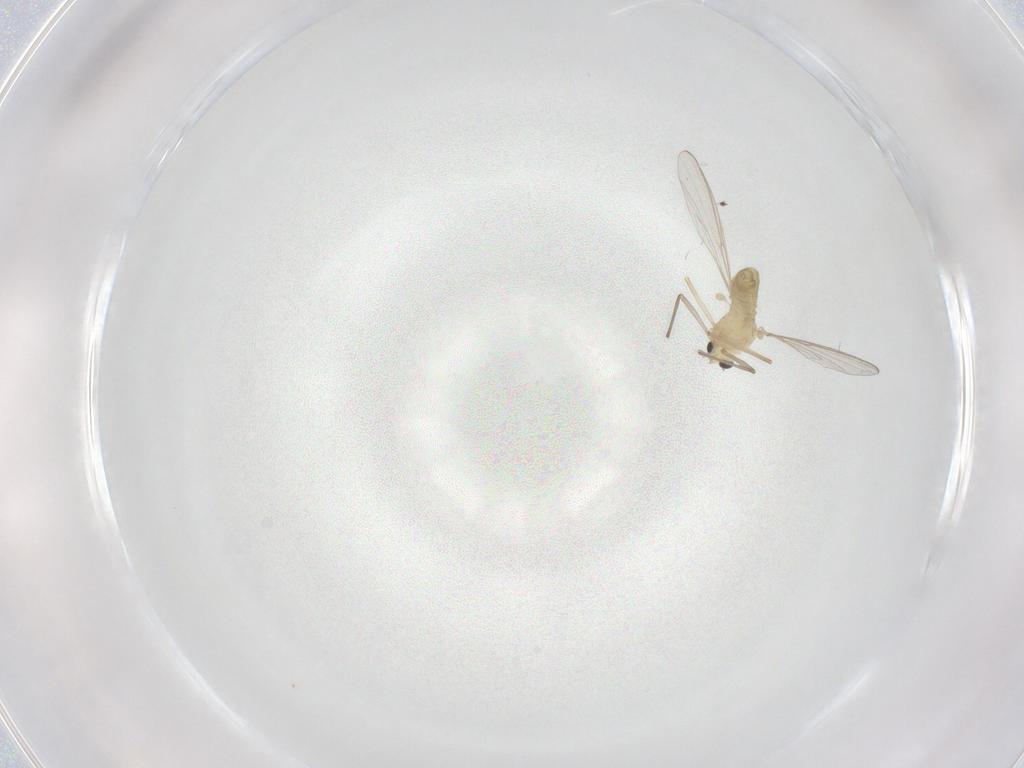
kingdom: Animalia
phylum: Arthropoda
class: Insecta
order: Diptera
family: Chironomidae
